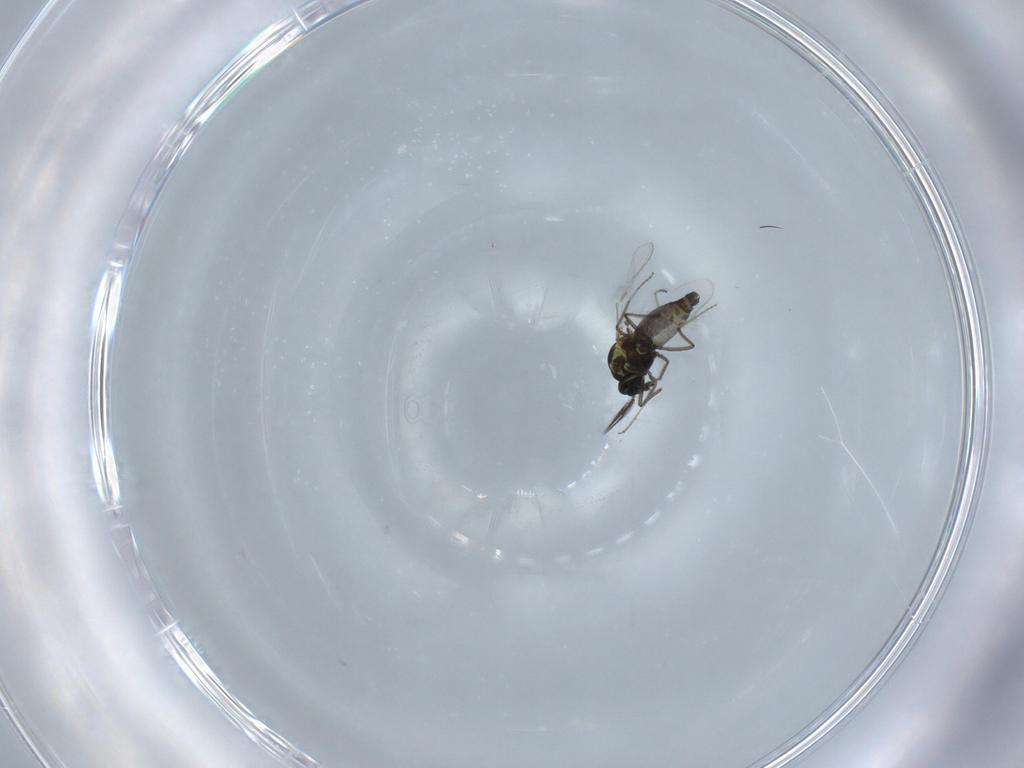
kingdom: Animalia
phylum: Arthropoda
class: Insecta
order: Diptera
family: Ceratopogonidae
